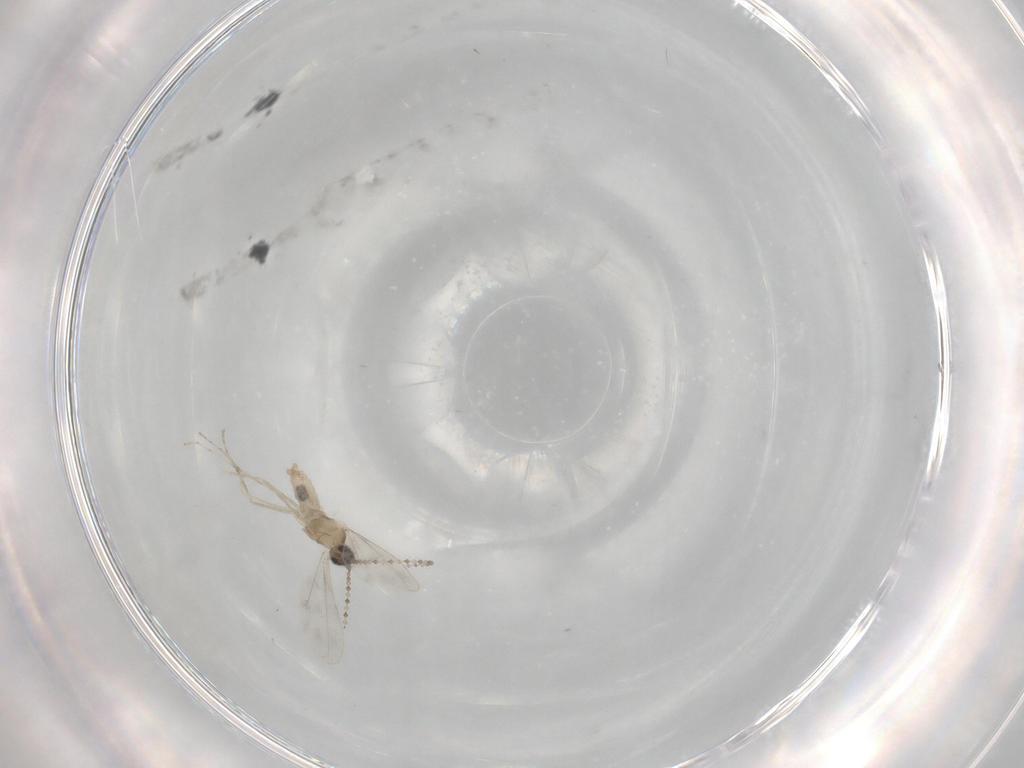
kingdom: Animalia
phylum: Arthropoda
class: Insecta
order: Diptera
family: Cecidomyiidae
